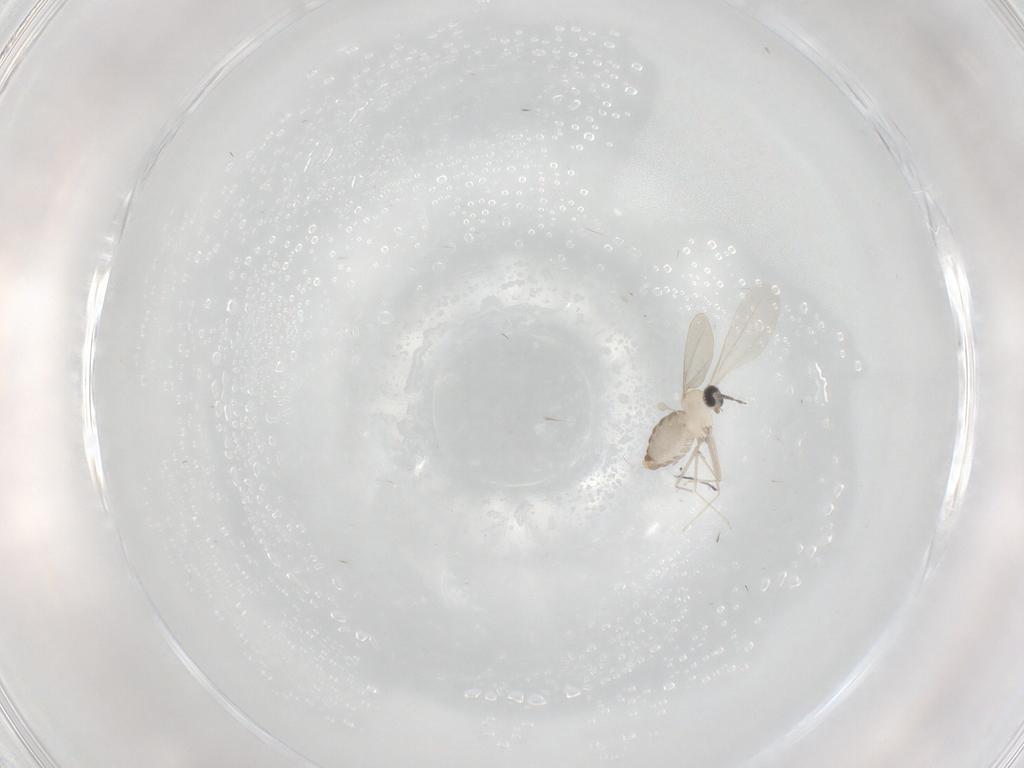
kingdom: Animalia
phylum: Arthropoda
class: Insecta
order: Diptera
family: Cecidomyiidae
